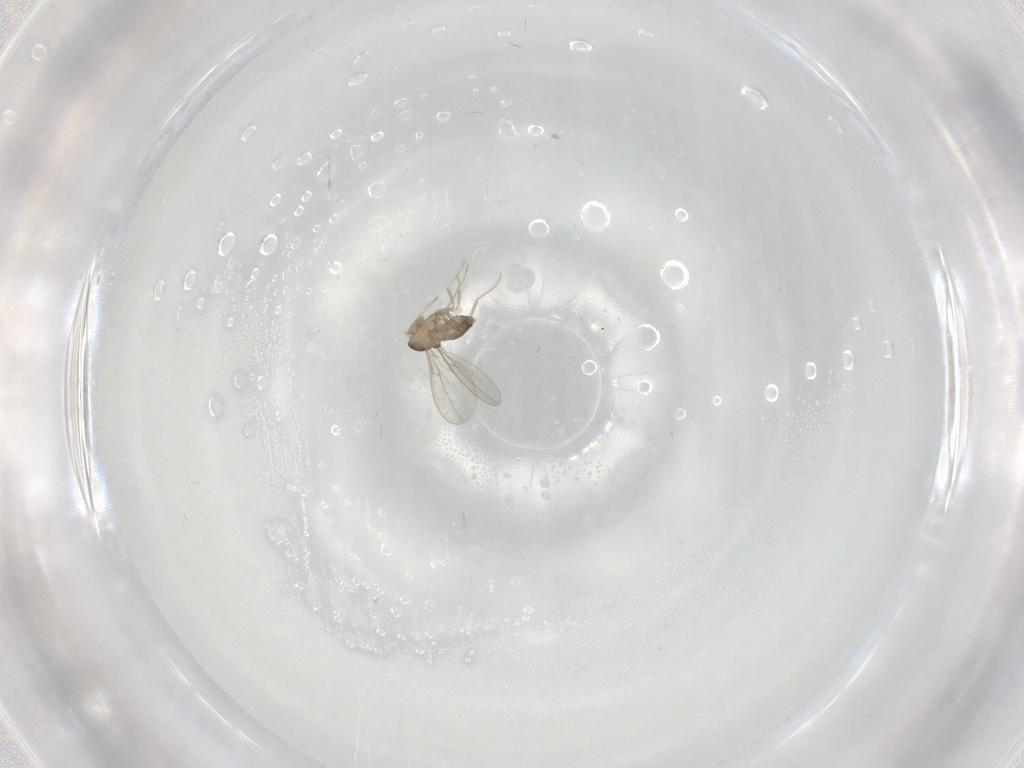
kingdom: Animalia
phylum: Arthropoda
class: Insecta
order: Diptera
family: Cecidomyiidae
